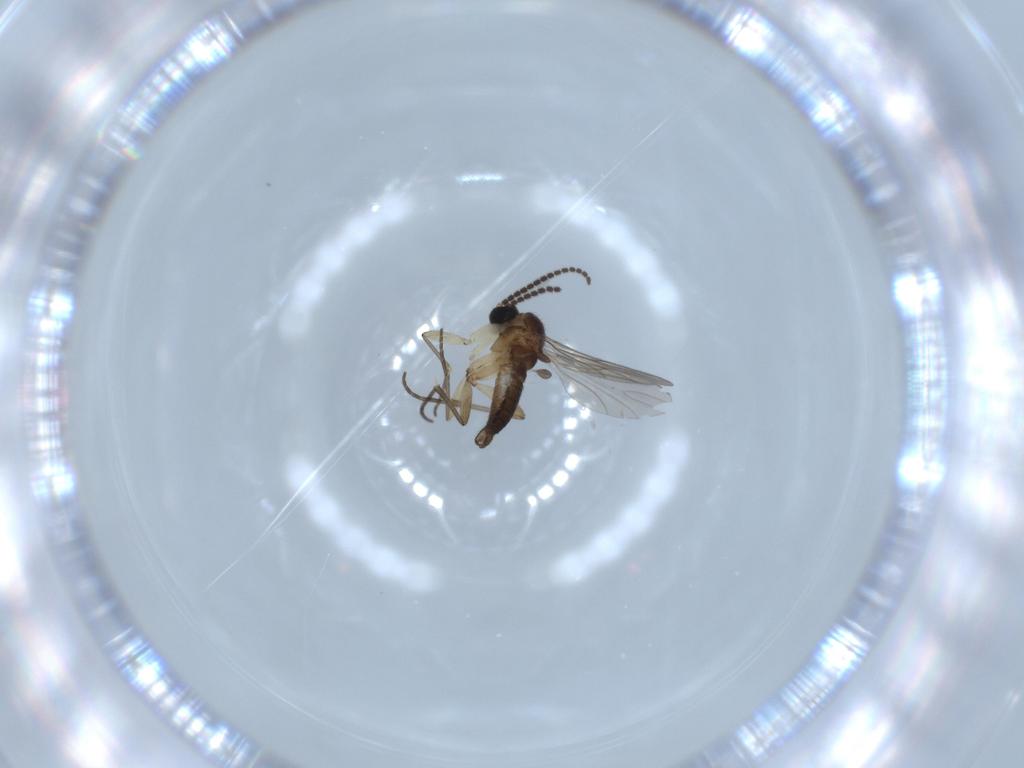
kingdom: Animalia
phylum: Arthropoda
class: Insecta
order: Diptera
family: Sciaridae
